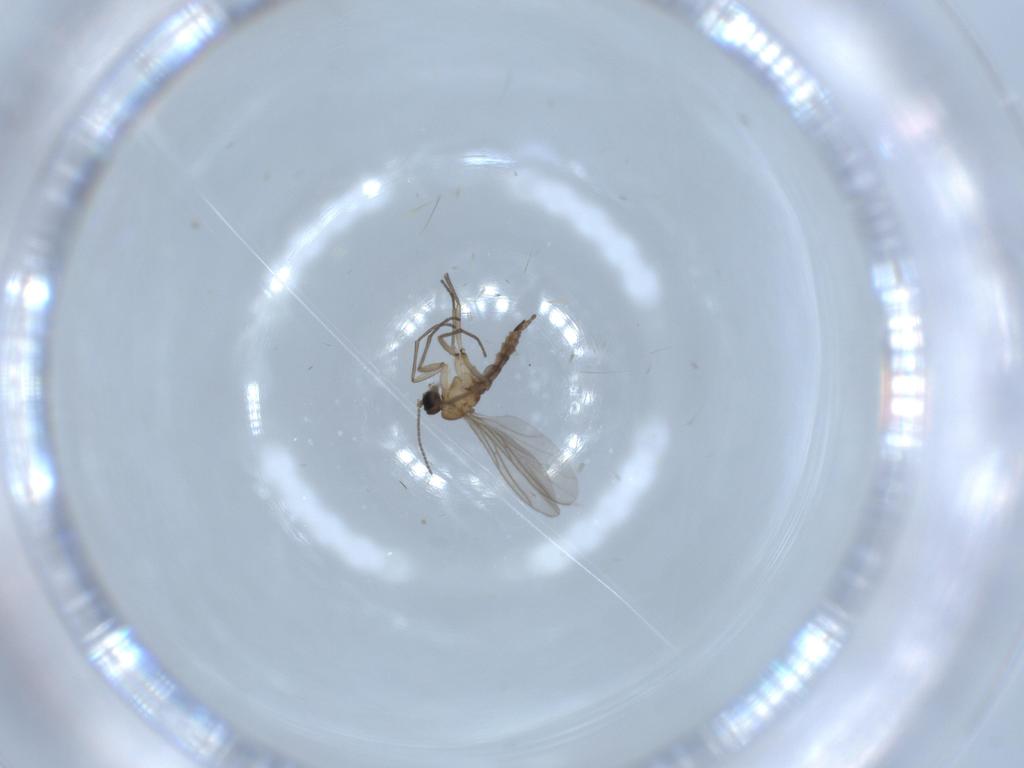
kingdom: Animalia
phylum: Arthropoda
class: Insecta
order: Diptera
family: Sciaridae
